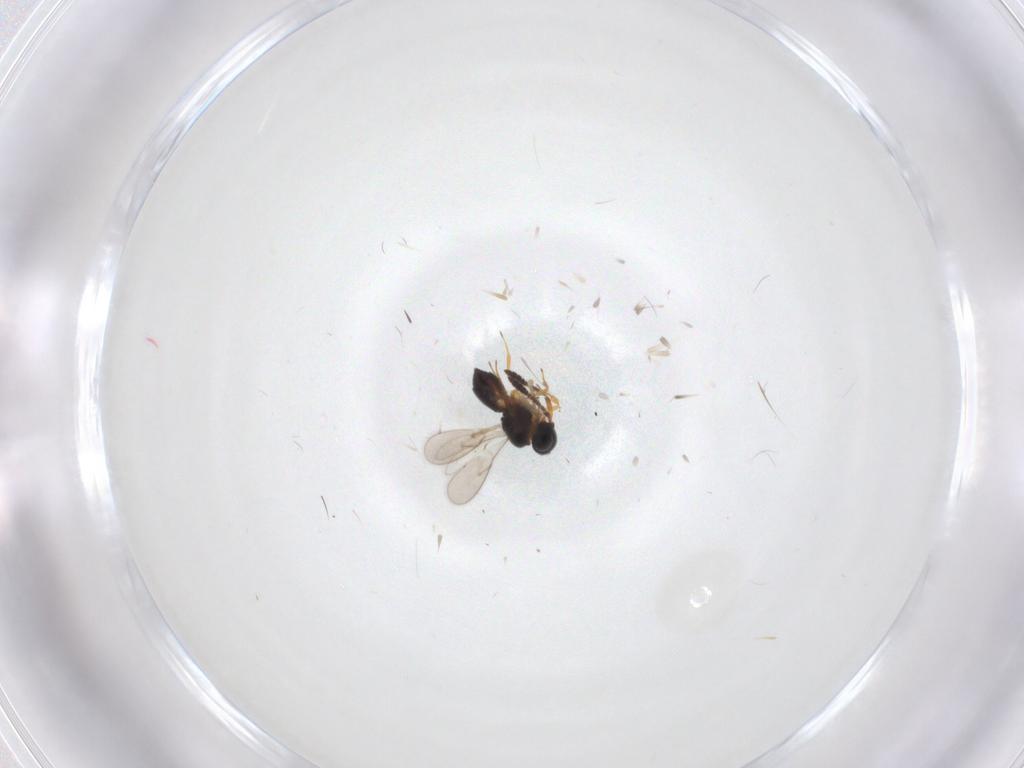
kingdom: Animalia
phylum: Arthropoda
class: Insecta
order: Hymenoptera
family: Scelionidae
